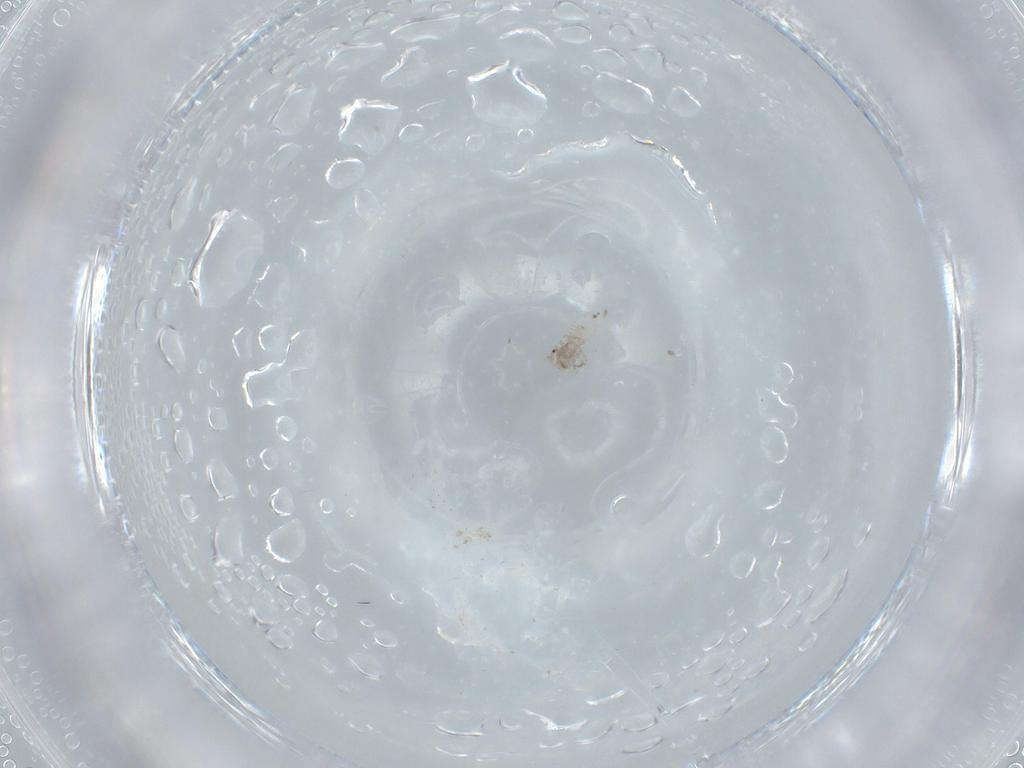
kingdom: Animalia
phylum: Arthropoda
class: Insecta
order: Psocodea
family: Caeciliusidae
